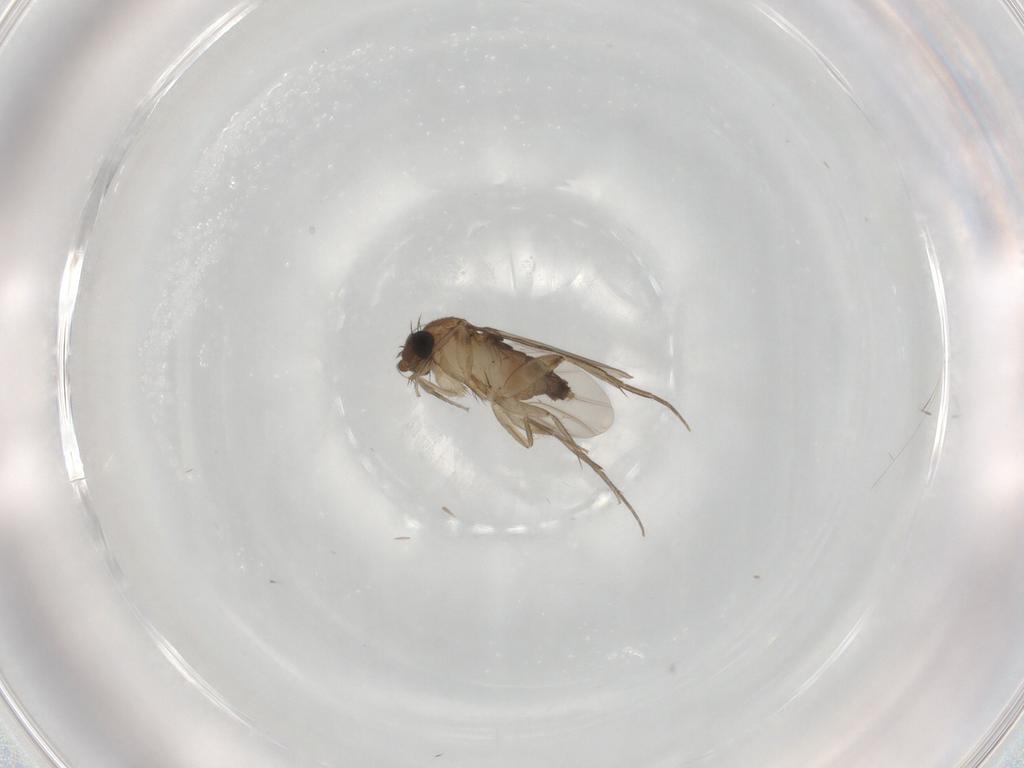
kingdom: Animalia
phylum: Arthropoda
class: Insecta
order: Diptera
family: Phoridae
